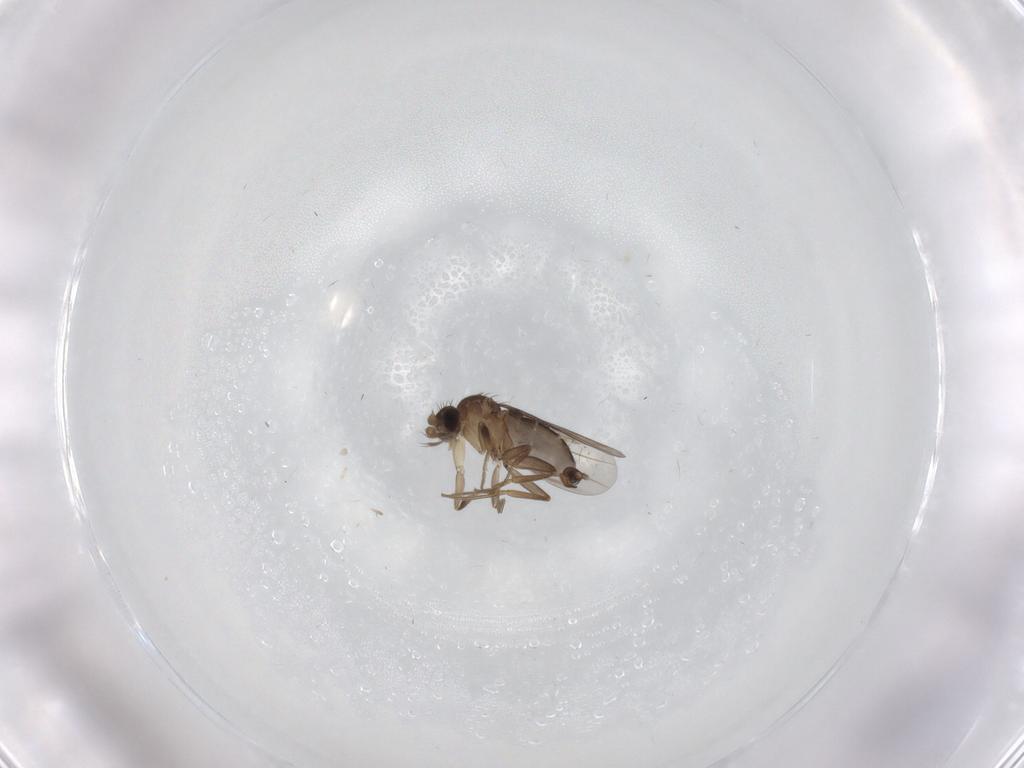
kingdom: Animalia
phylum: Arthropoda
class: Insecta
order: Diptera
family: Phoridae
